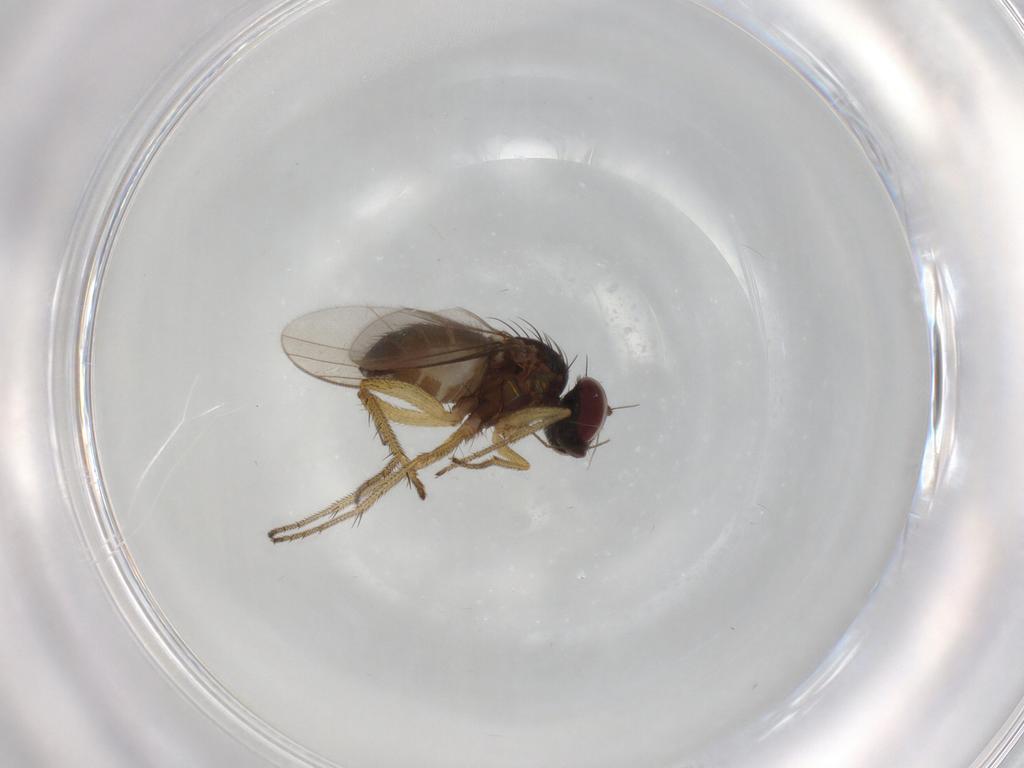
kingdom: Animalia
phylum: Arthropoda
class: Insecta
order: Diptera
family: Dolichopodidae
